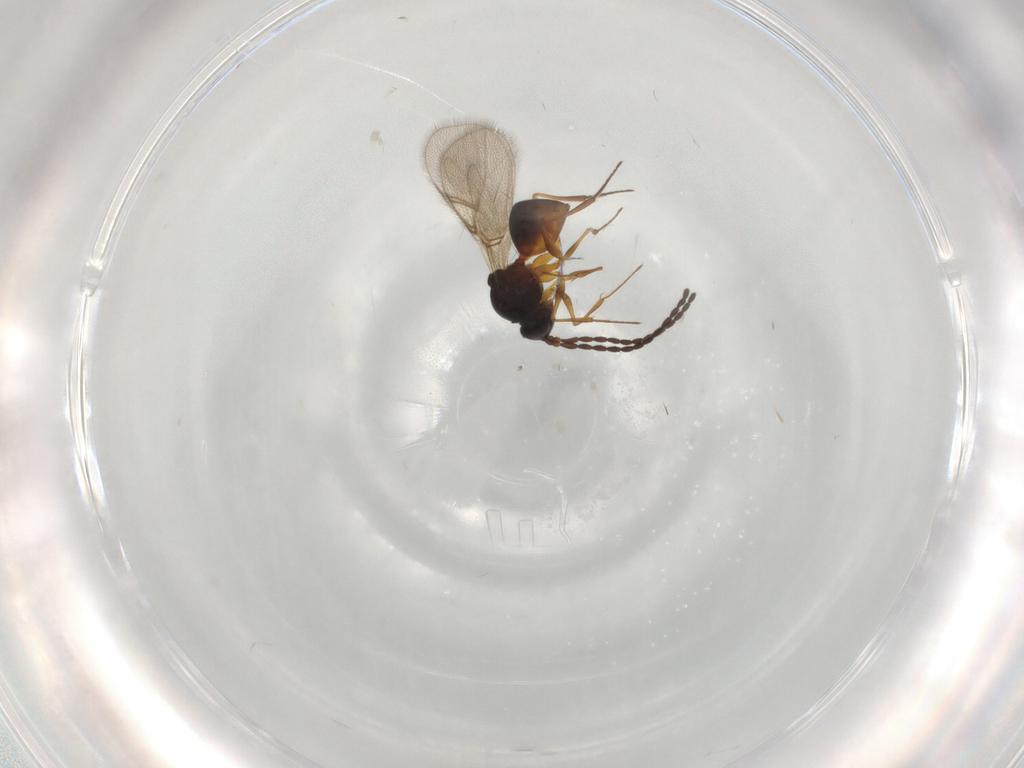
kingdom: Animalia
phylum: Arthropoda
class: Insecta
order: Hymenoptera
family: Figitidae
